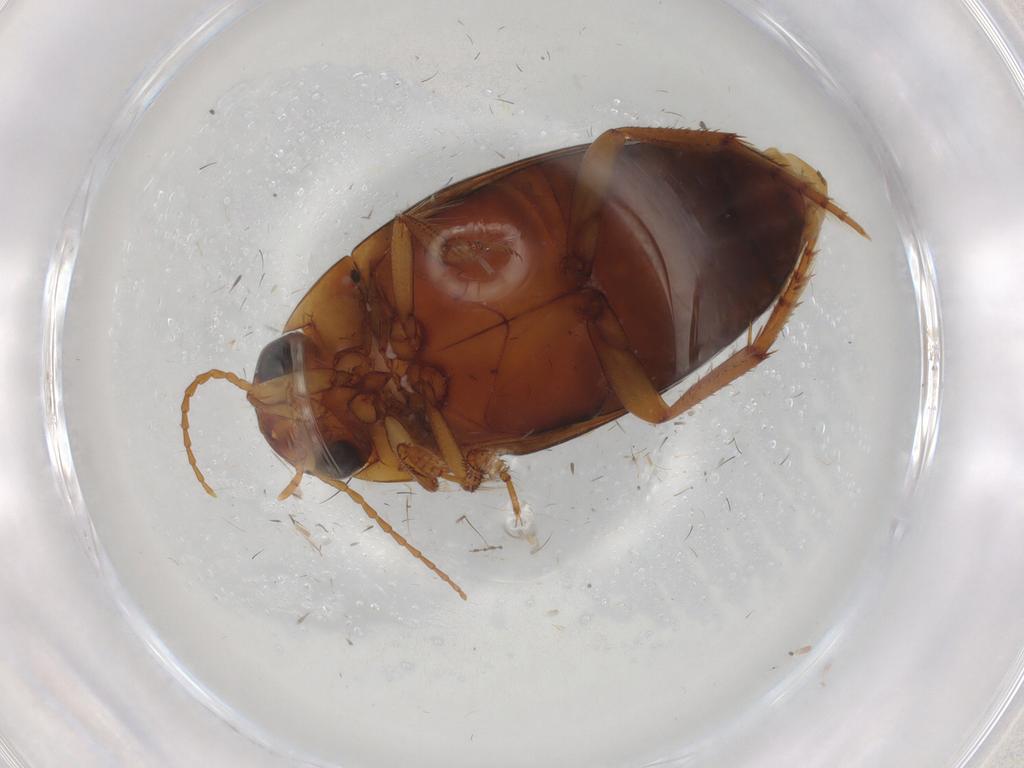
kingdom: Animalia
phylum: Arthropoda
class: Insecta
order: Coleoptera
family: Dytiscidae
